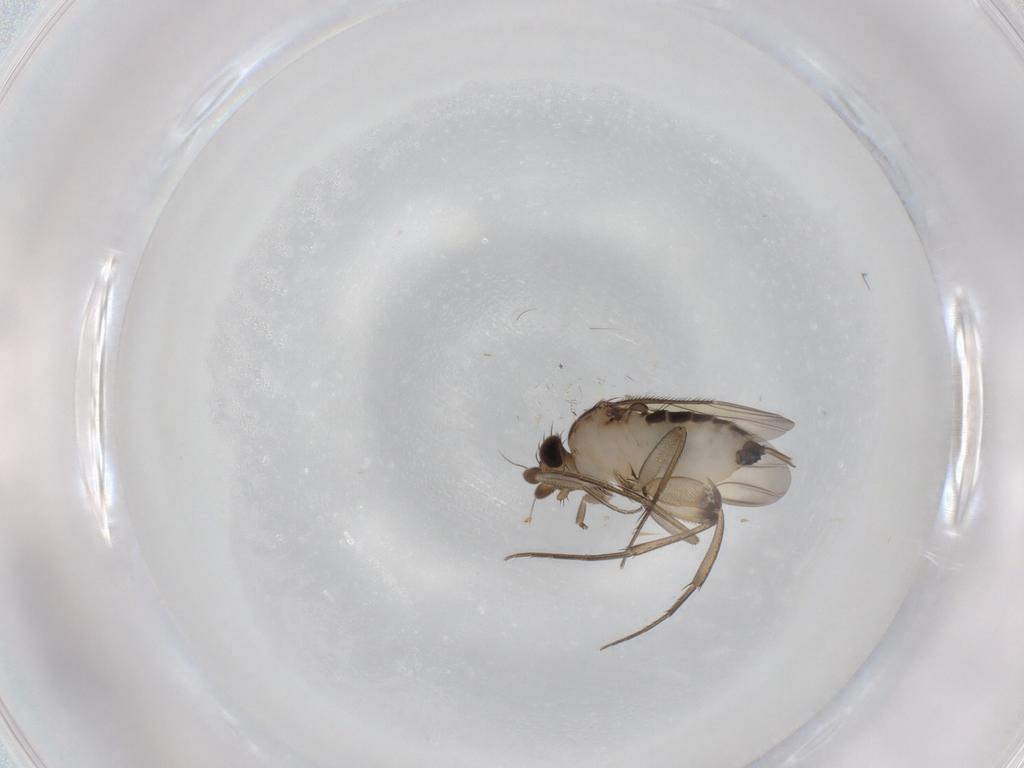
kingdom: Animalia
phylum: Arthropoda
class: Insecta
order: Diptera
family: Phoridae
